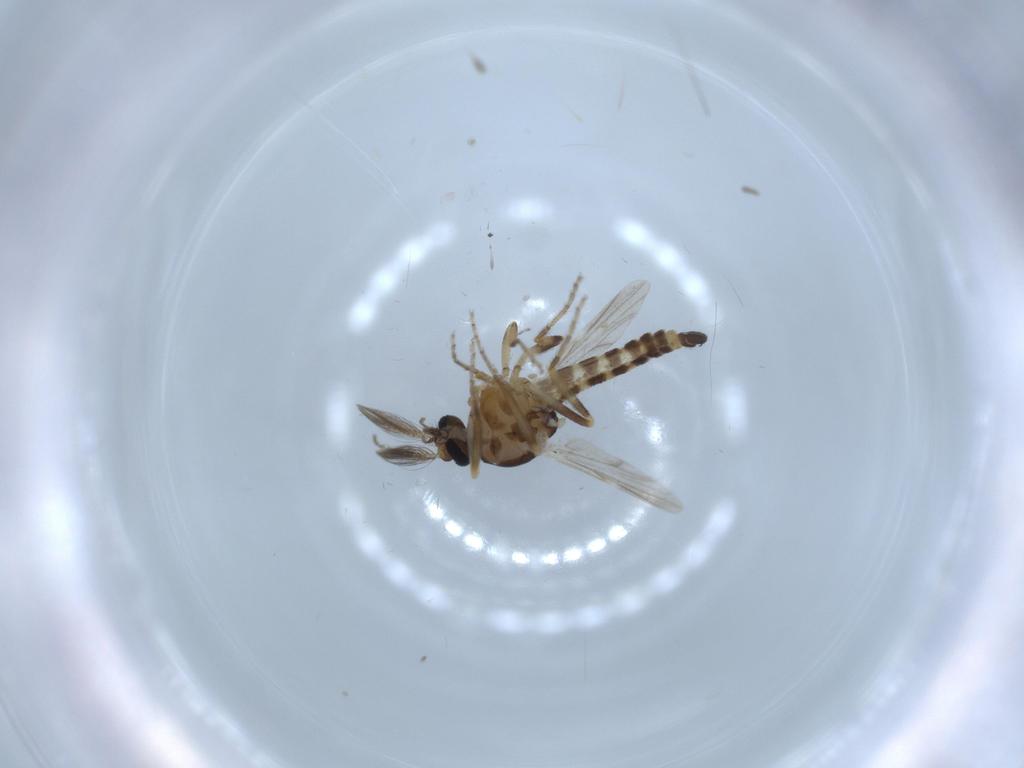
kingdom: Animalia
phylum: Arthropoda
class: Insecta
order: Diptera
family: Ceratopogonidae
